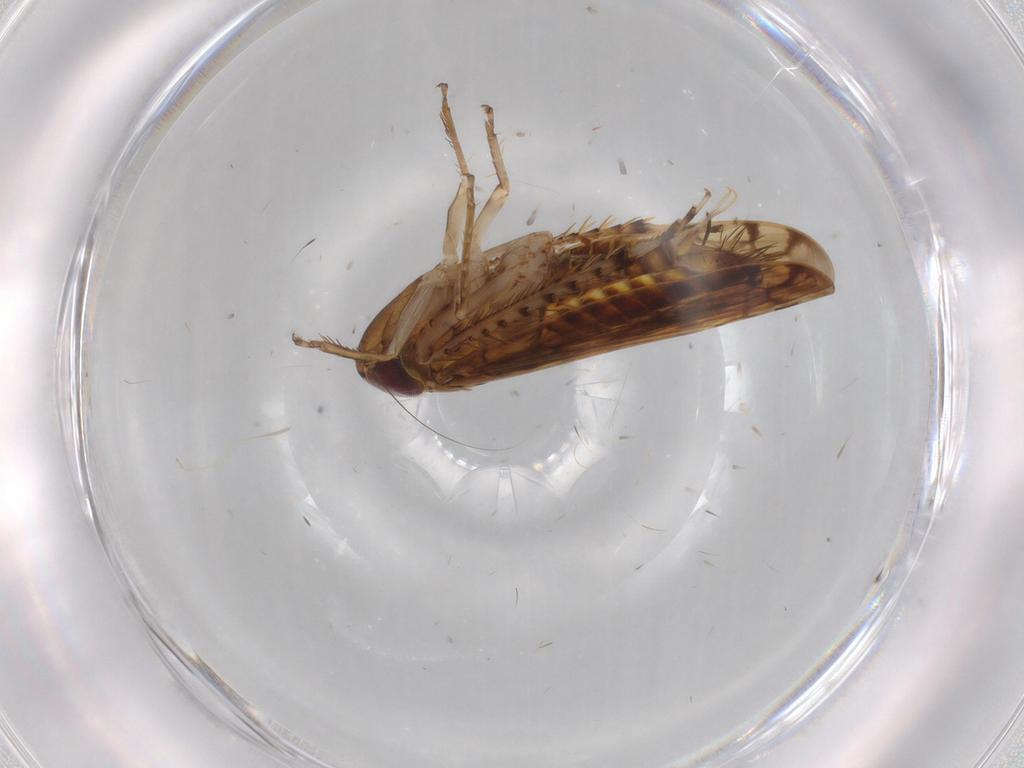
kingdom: Animalia
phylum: Arthropoda
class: Insecta
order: Hemiptera
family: Cicadellidae
